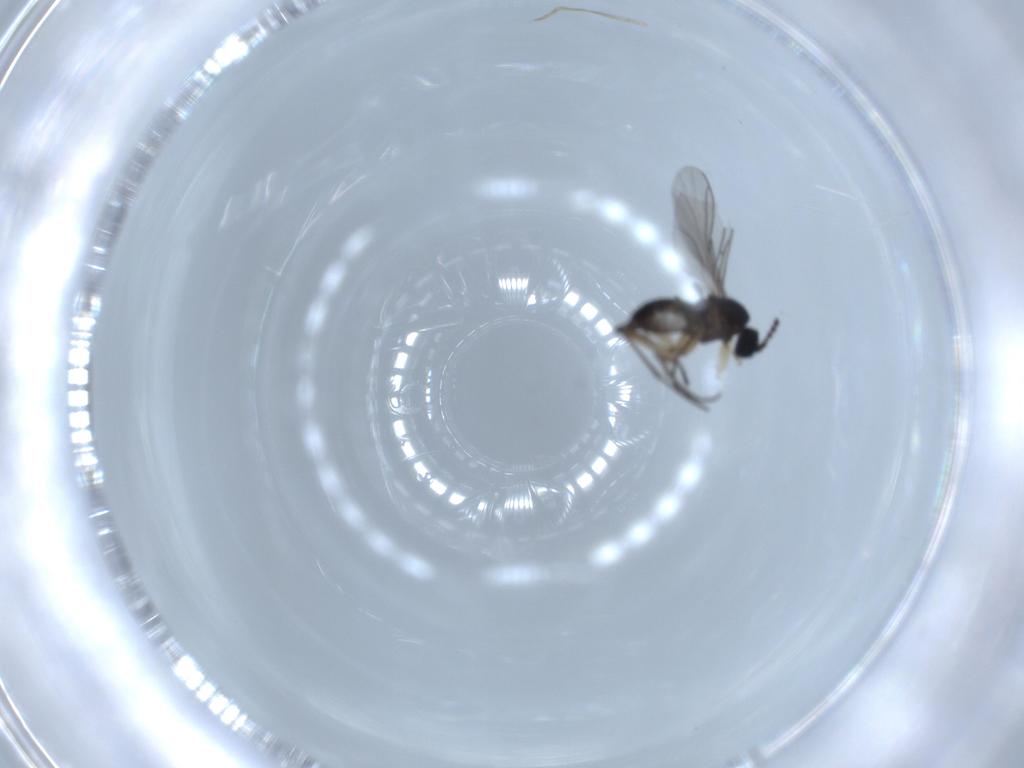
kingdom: Animalia
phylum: Arthropoda
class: Insecta
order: Diptera
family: Sciaridae
